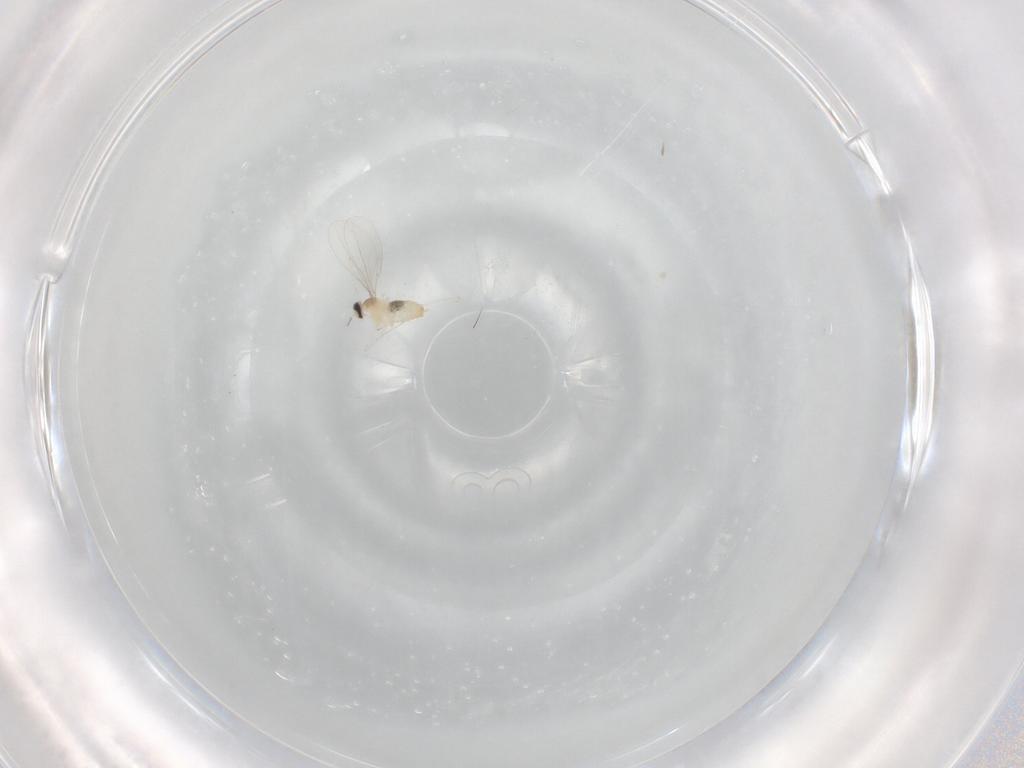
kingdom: Animalia
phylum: Arthropoda
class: Insecta
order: Diptera
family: Cecidomyiidae
